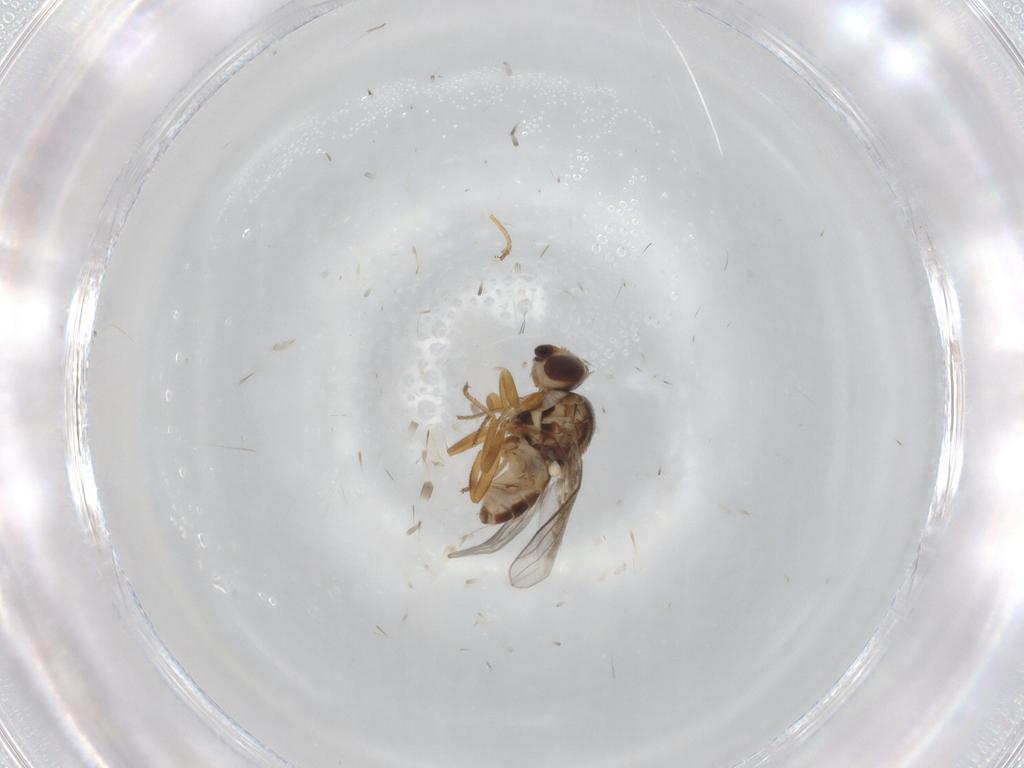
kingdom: Animalia
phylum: Arthropoda
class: Insecta
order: Diptera
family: Chloropidae
